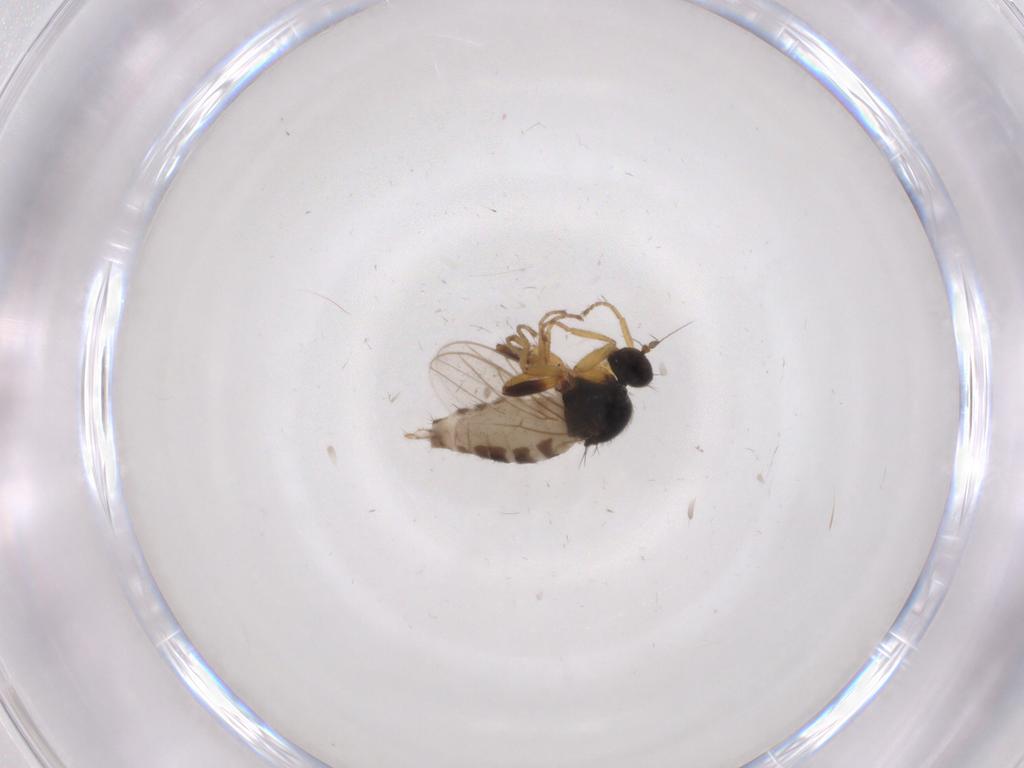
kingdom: Animalia
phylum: Arthropoda
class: Insecta
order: Diptera
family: Hybotidae
